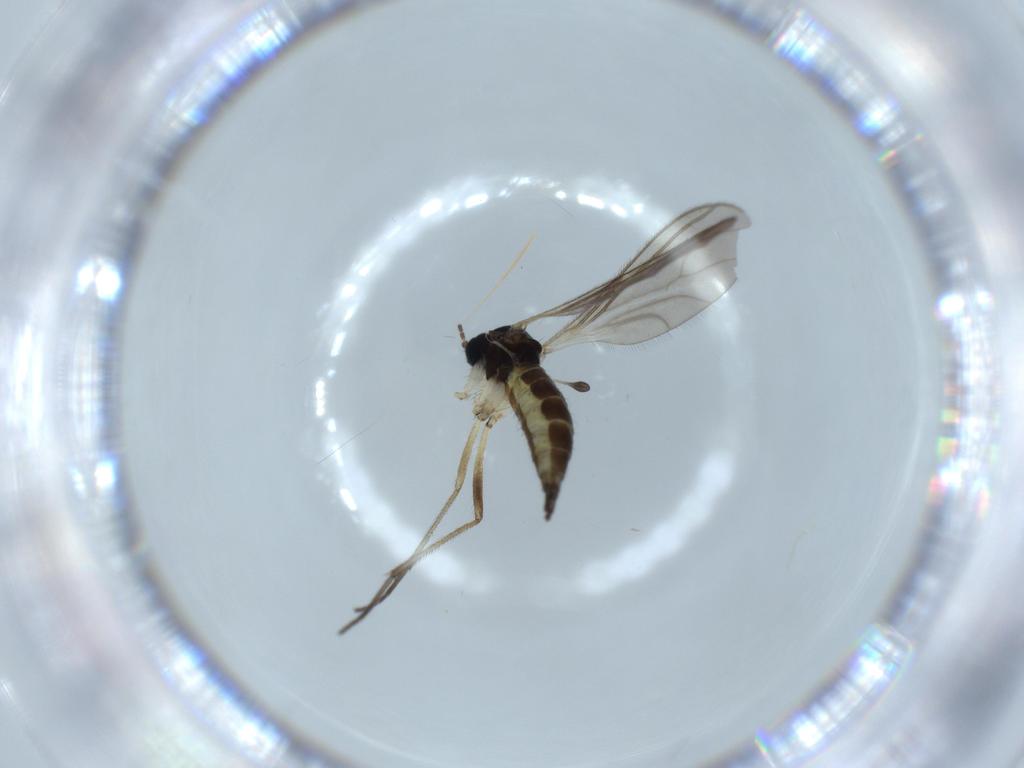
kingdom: Animalia
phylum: Arthropoda
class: Insecta
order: Diptera
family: Sciaridae
